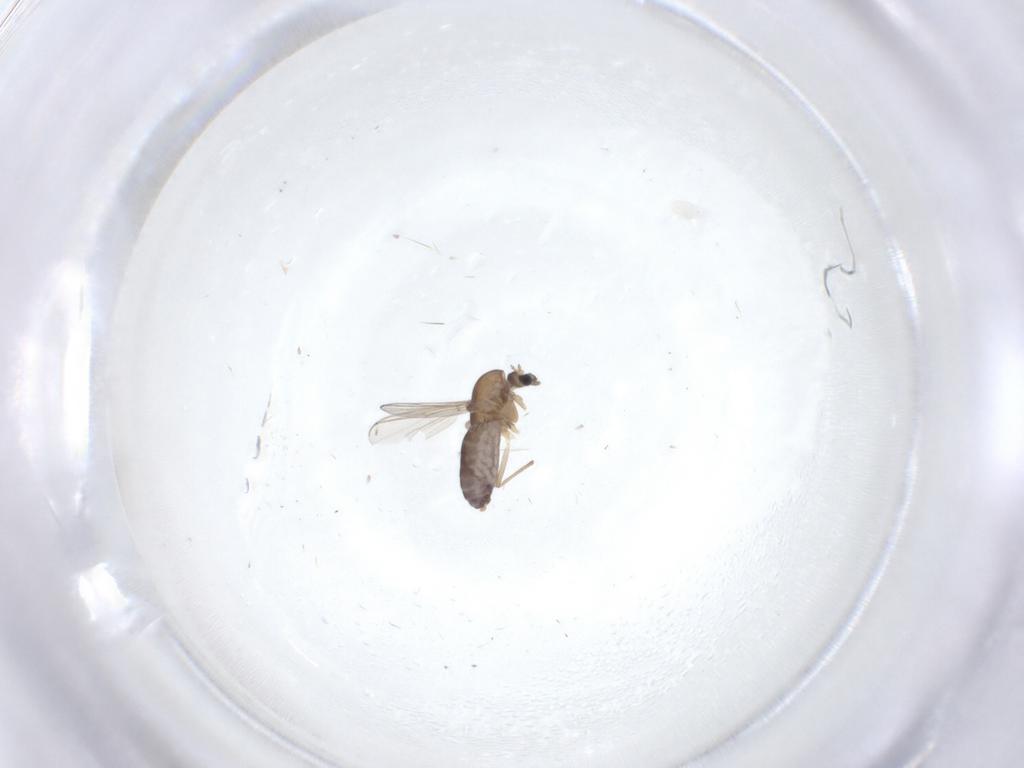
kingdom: Animalia
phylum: Arthropoda
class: Insecta
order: Diptera
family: Chironomidae
